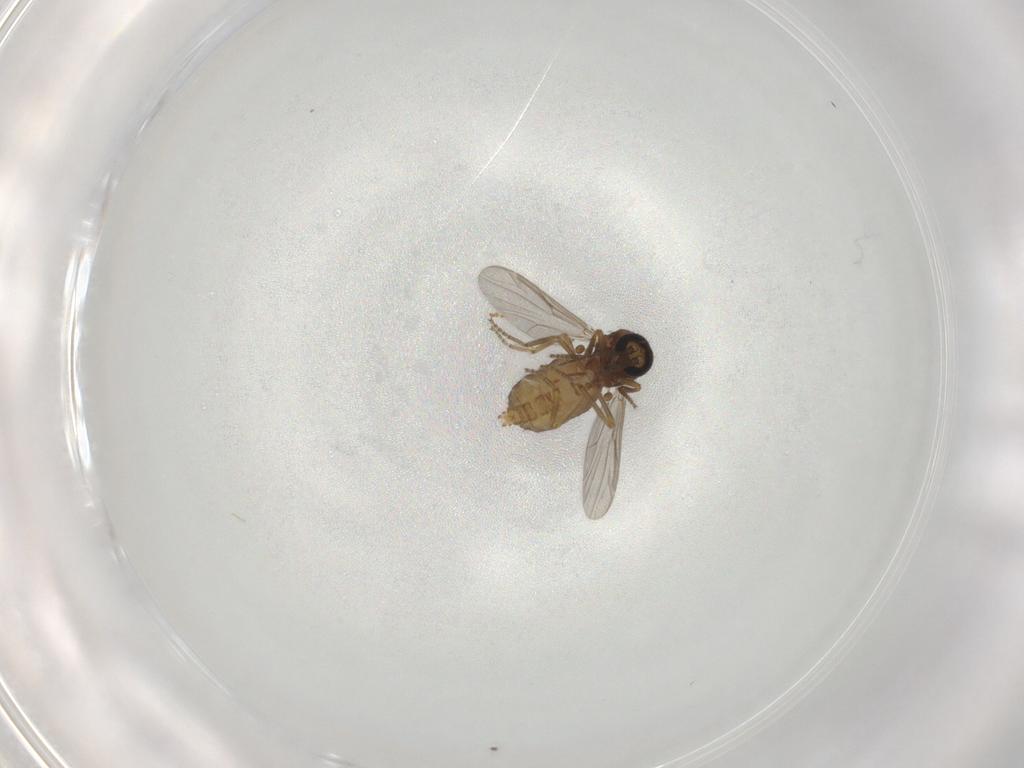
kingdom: Animalia
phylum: Arthropoda
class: Insecta
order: Diptera
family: Ceratopogonidae
